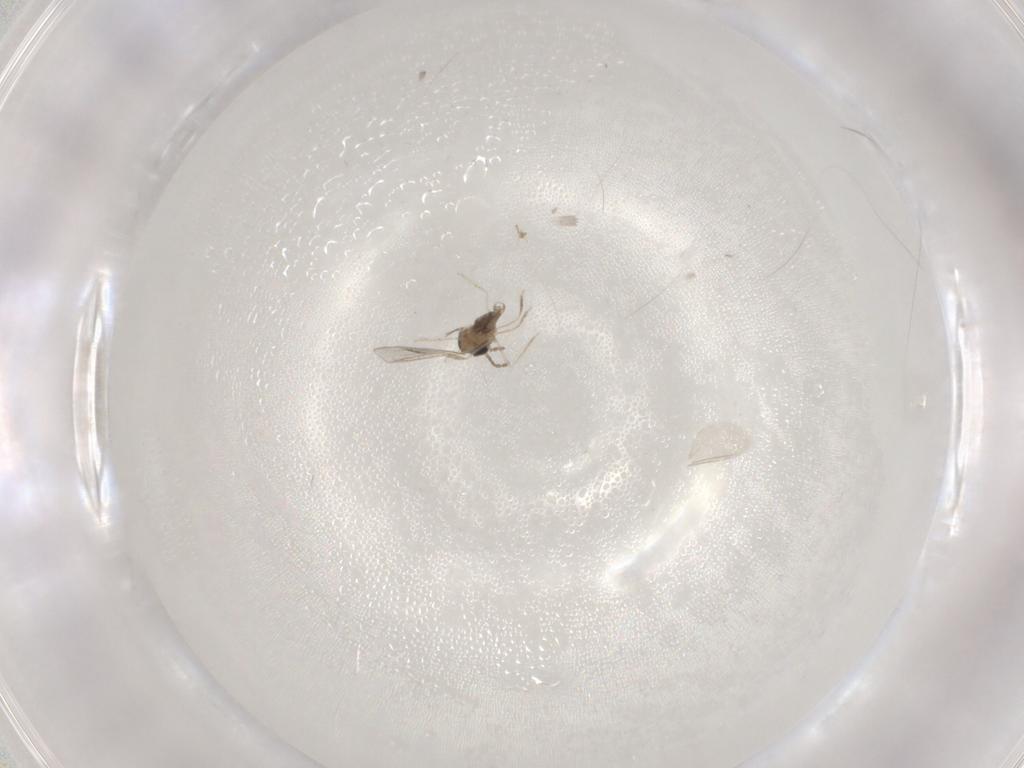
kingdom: Animalia
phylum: Arthropoda
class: Insecta
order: Diptera
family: Cecidomyiidae
